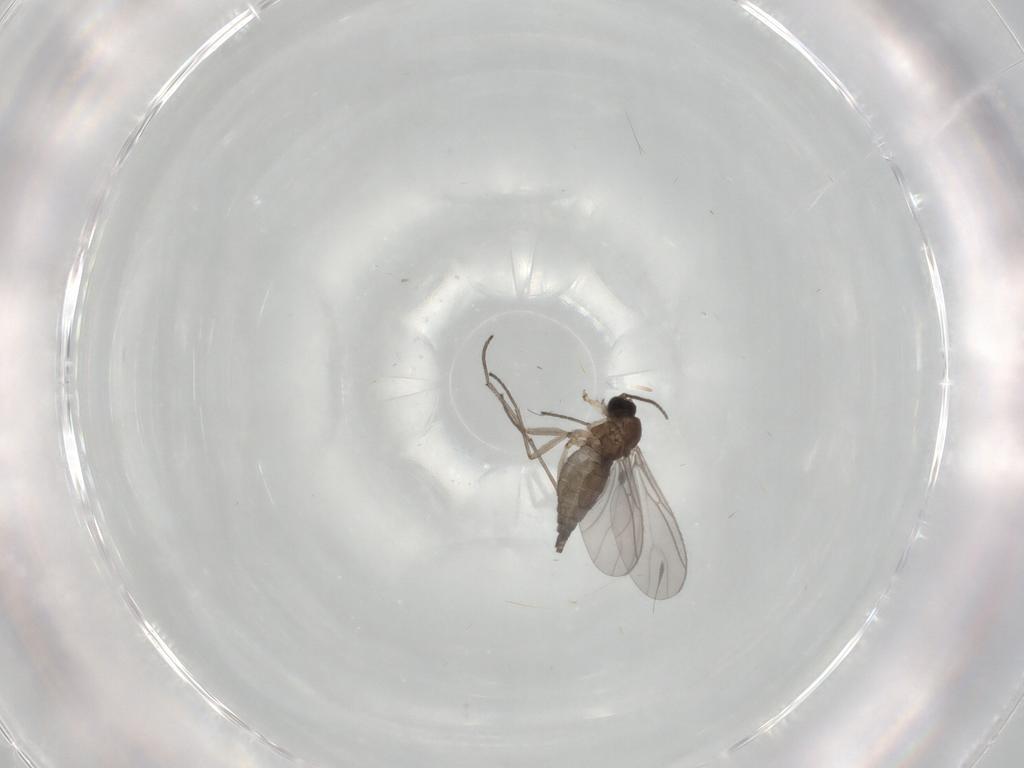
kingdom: Animalia
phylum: Arthropoda
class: Insecta
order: Diptera
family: Sciaridae
